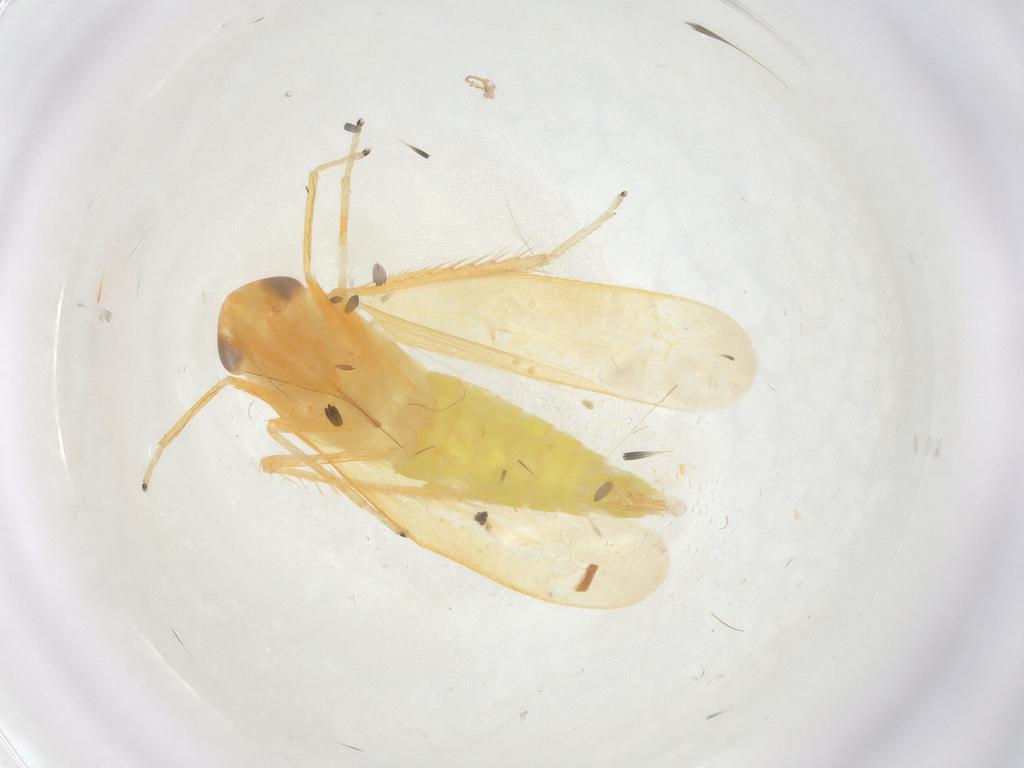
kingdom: Animalia
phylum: Arthropoda
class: Insecta
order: Hemiptera
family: Cicadellidae
